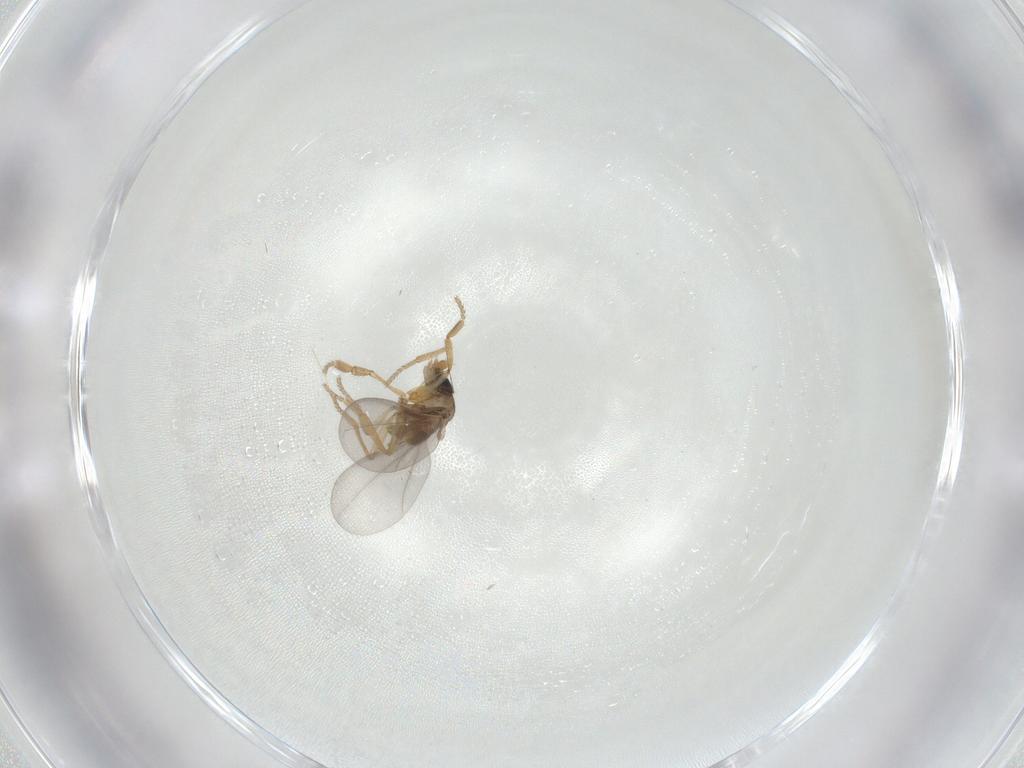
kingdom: Animalia
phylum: Arthropoda
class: Insecta
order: Diptera
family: Phoridae
